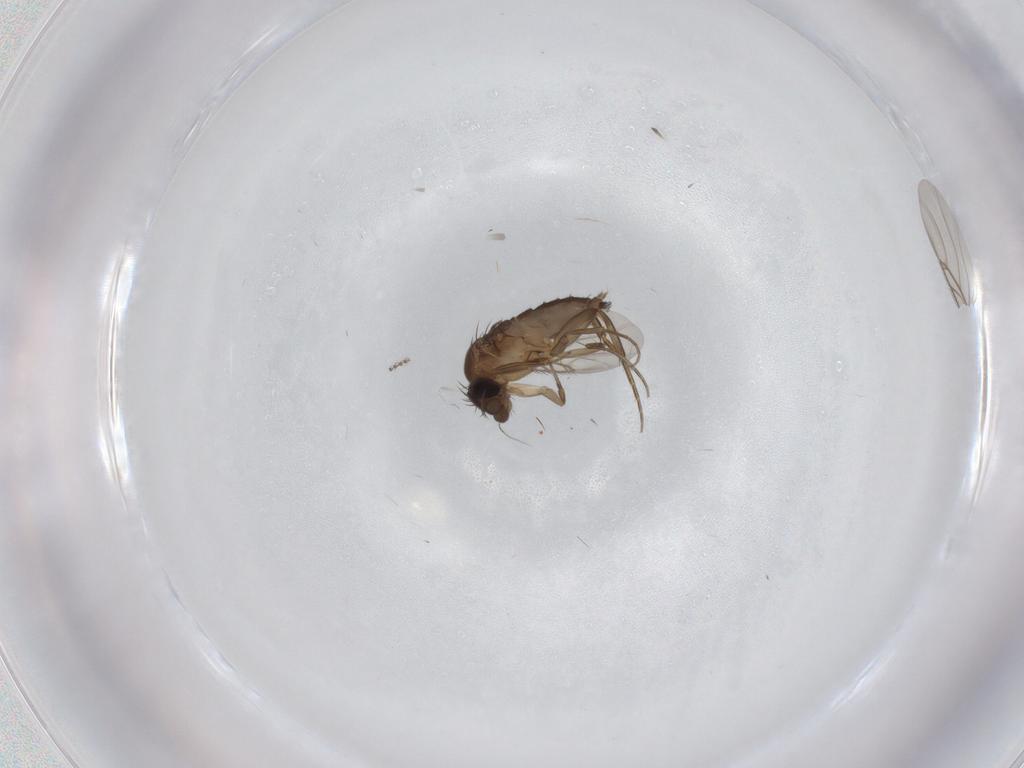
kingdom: Animalia
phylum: Arthropoda
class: Insecta
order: Diptera
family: Phoridae
